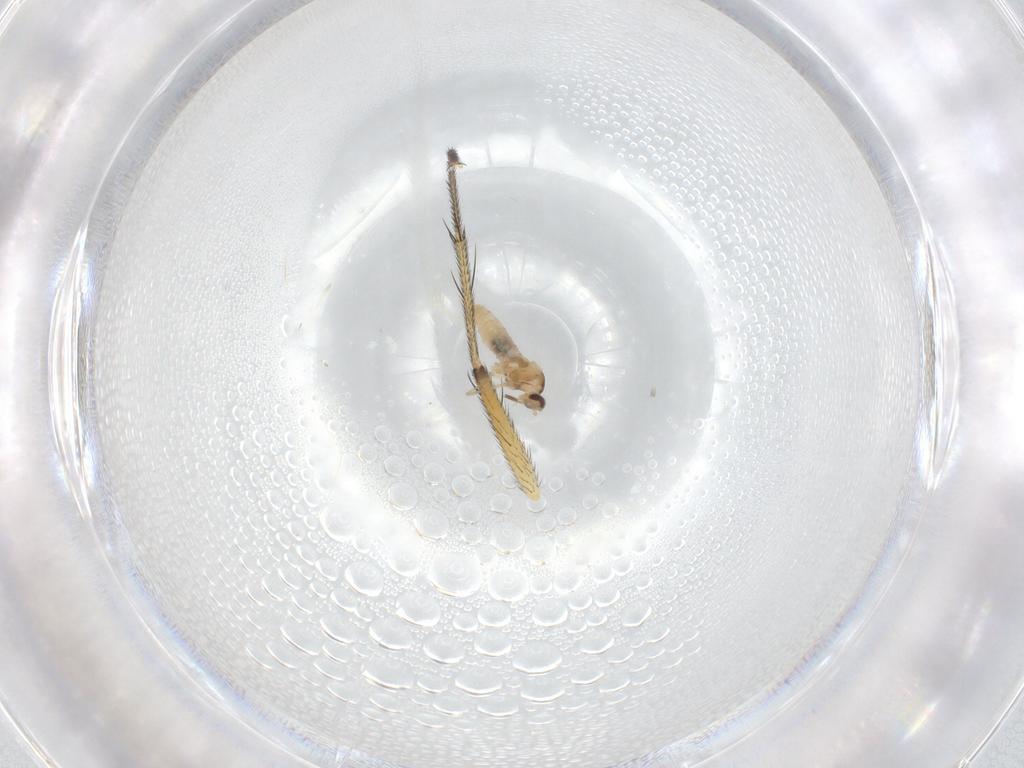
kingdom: Animalia
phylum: Arthropoda
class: Insecta
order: Diptera
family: Cecidomyiidae
